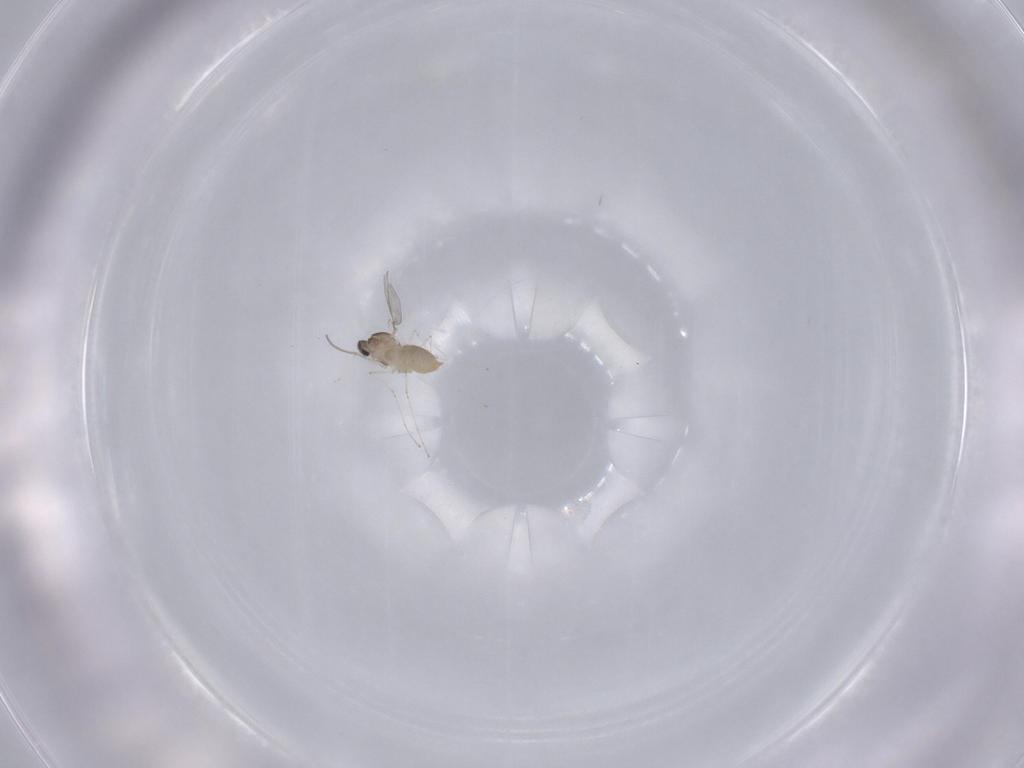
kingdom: Animalia
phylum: Arthropoda
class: Insecta
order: Diptera
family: Cecidomyiidae
